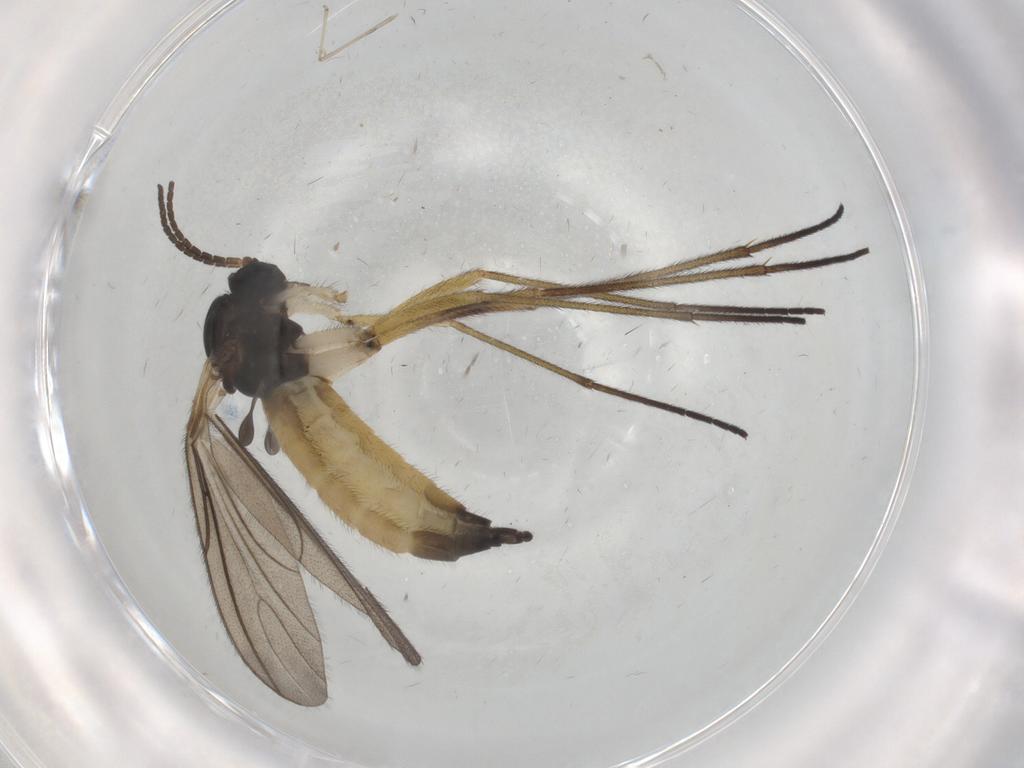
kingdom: Animalia
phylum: Arthropoda
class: Insecta
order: Diptera
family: Sciaridae
